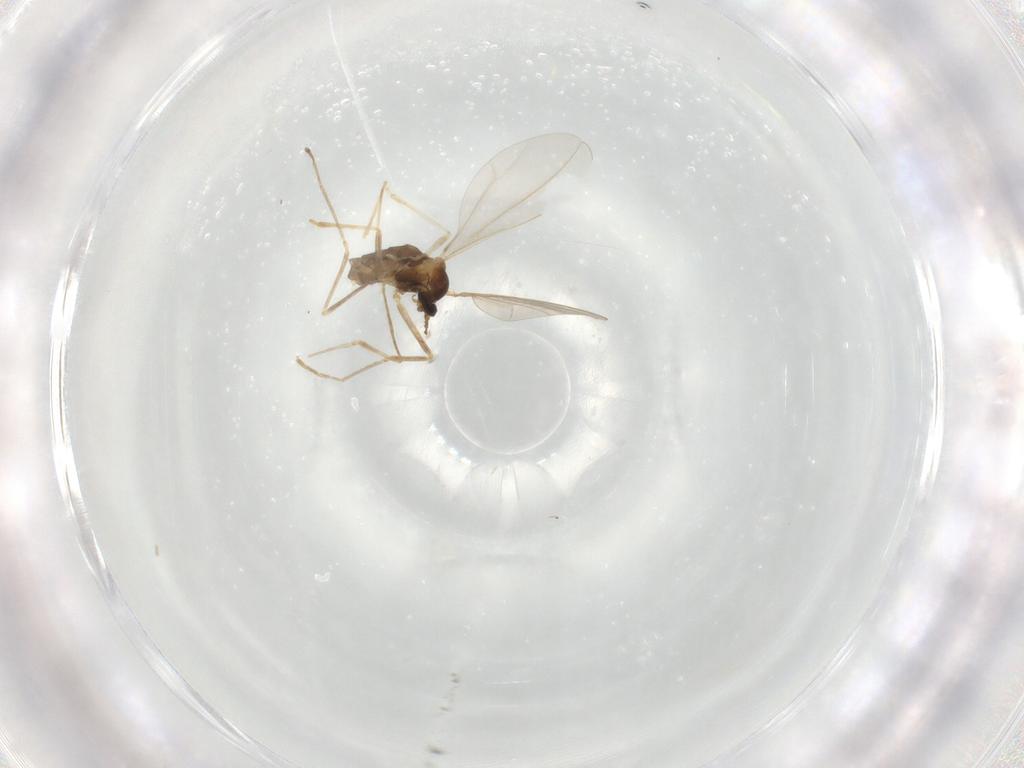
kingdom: Animalia
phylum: Arthropoda
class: Insecta
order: Diptera
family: Cecidomyiidae
